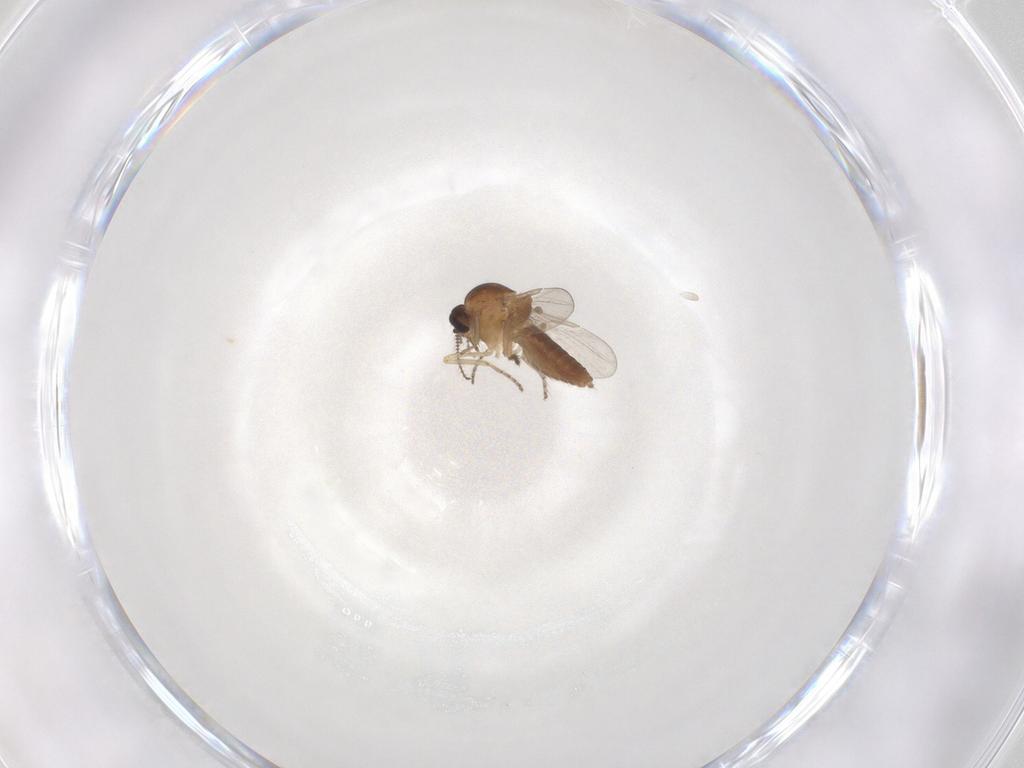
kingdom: Animalia
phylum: Arthropoda
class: Insecta
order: Diptera
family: Ceratopogonidae
